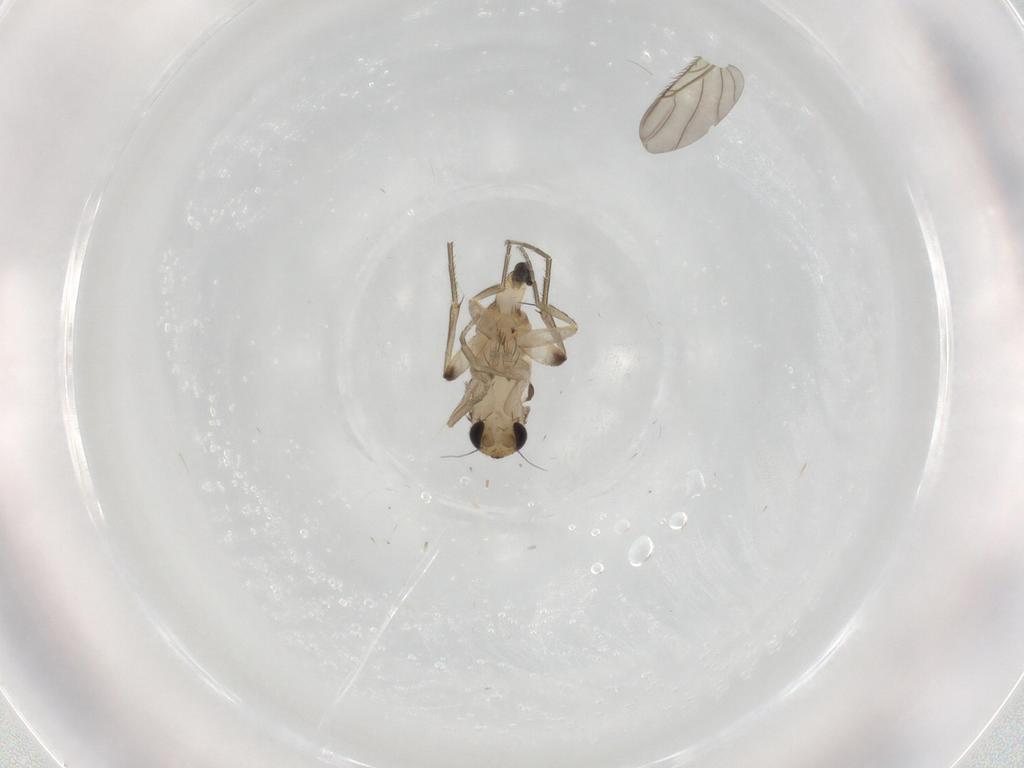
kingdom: Animalia
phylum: Arthropoda
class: Insecta
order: Diptera
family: Phoridae
